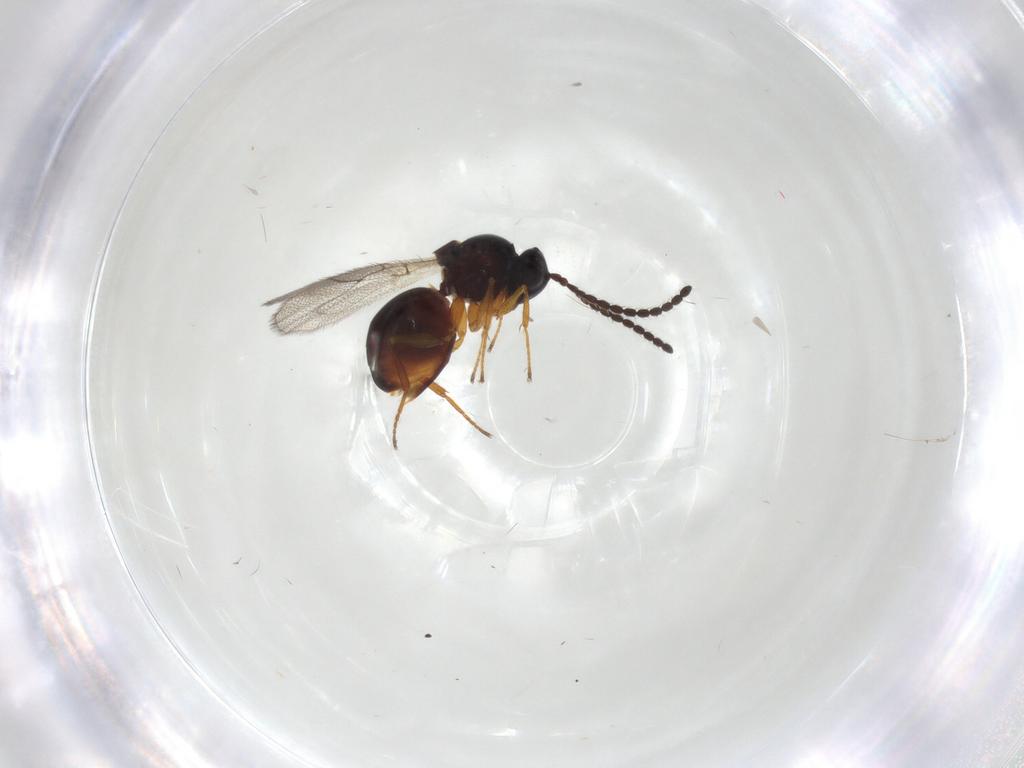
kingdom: Animalia
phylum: Arthropoda
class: Insecta
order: Hymenoptera
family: Figitidae
